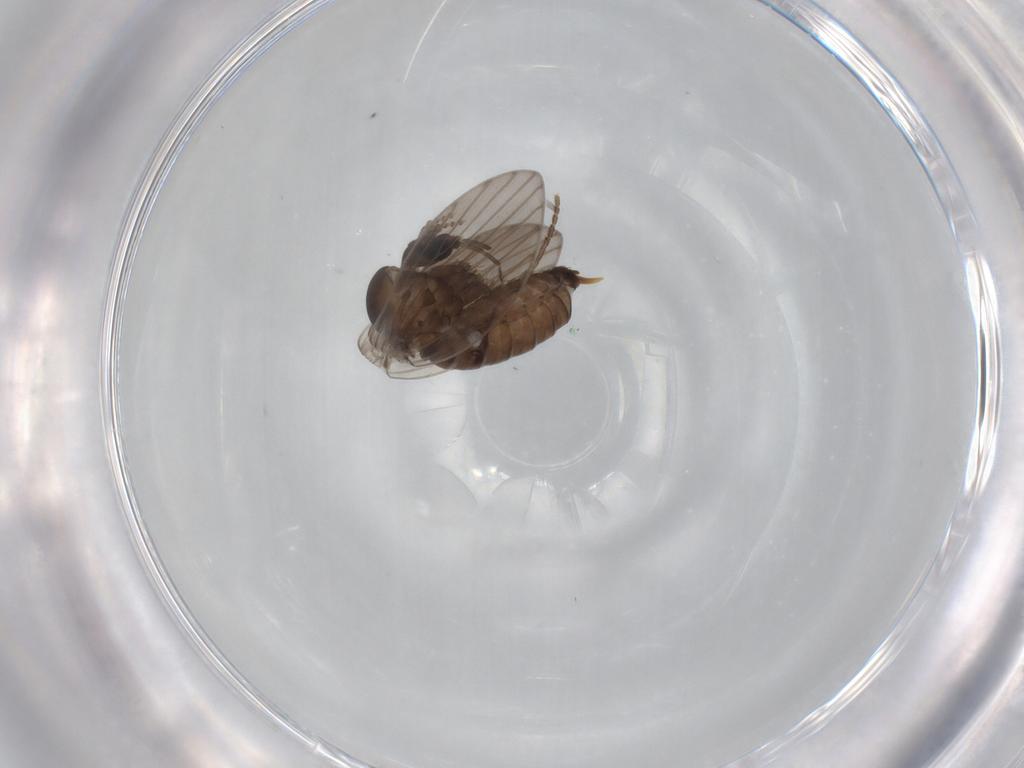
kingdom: Animalia
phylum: Arthropoda
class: Insecta
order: Diptera
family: Psychodidae
